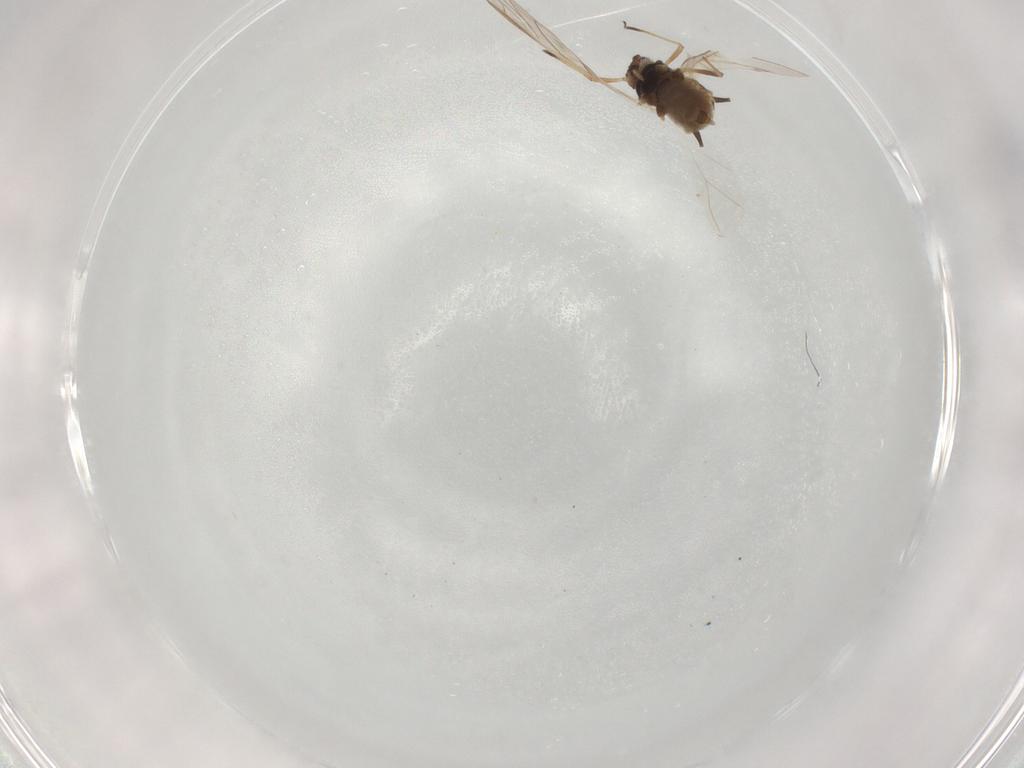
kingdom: Animalia
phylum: Arthropoda
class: Insecta
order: Hemiptera
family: Aphididae
